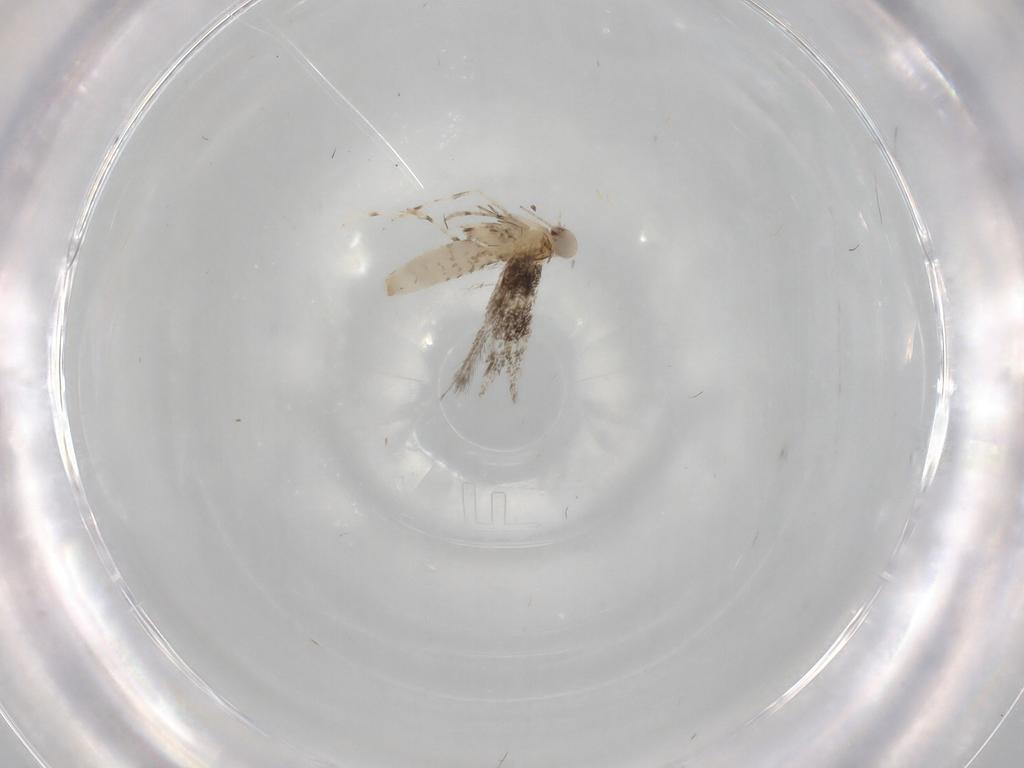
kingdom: Animalia
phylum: Arthropoda
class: Insecta
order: Lepidoptera
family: Gracillariidae
